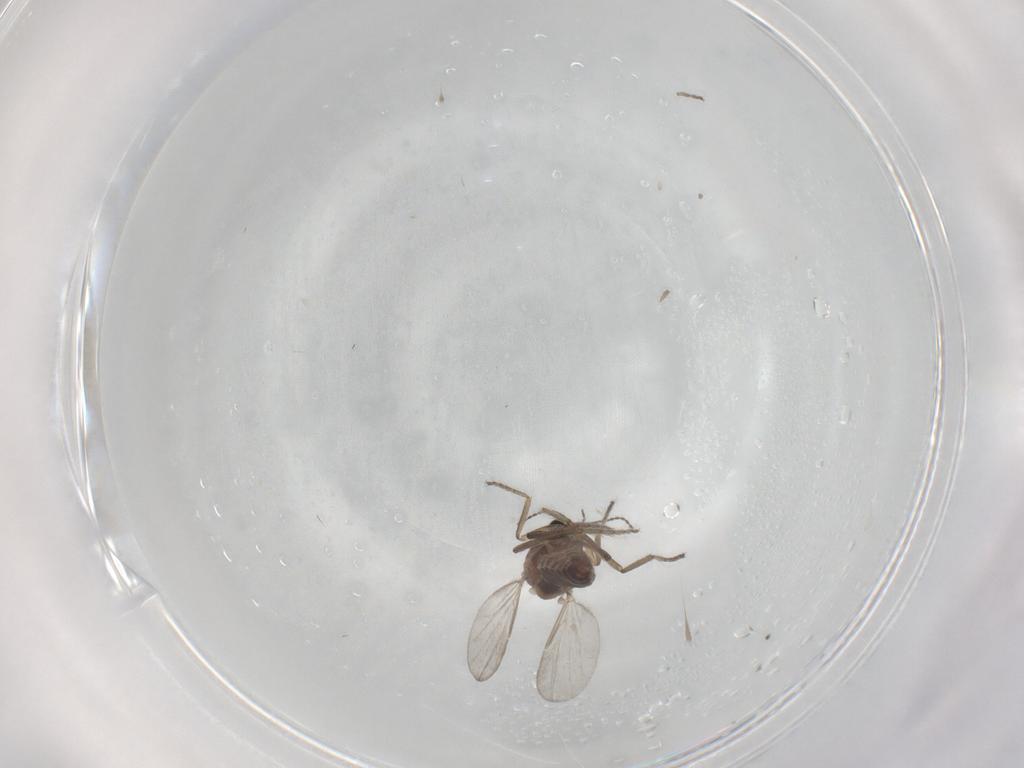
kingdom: Animalia
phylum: Arthropoda
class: Insecta
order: Diptera
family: Ceratopogonidae
